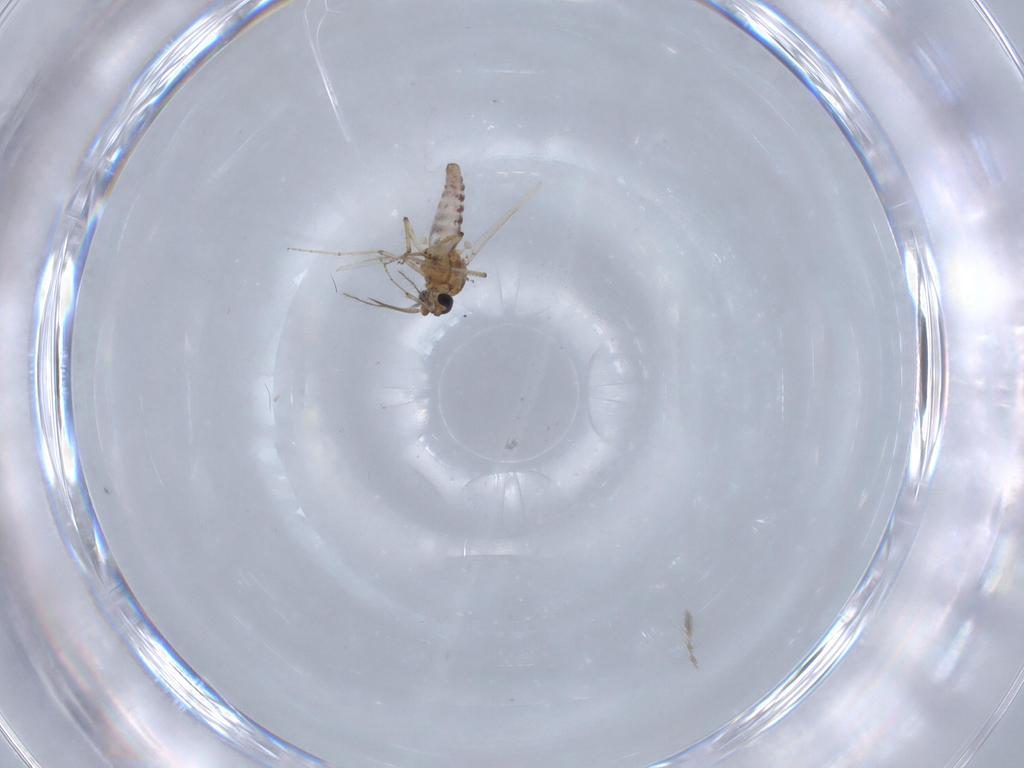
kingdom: Animalia
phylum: Arthropoda
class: Insecta
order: Diptera
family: Ceratopogonidae
